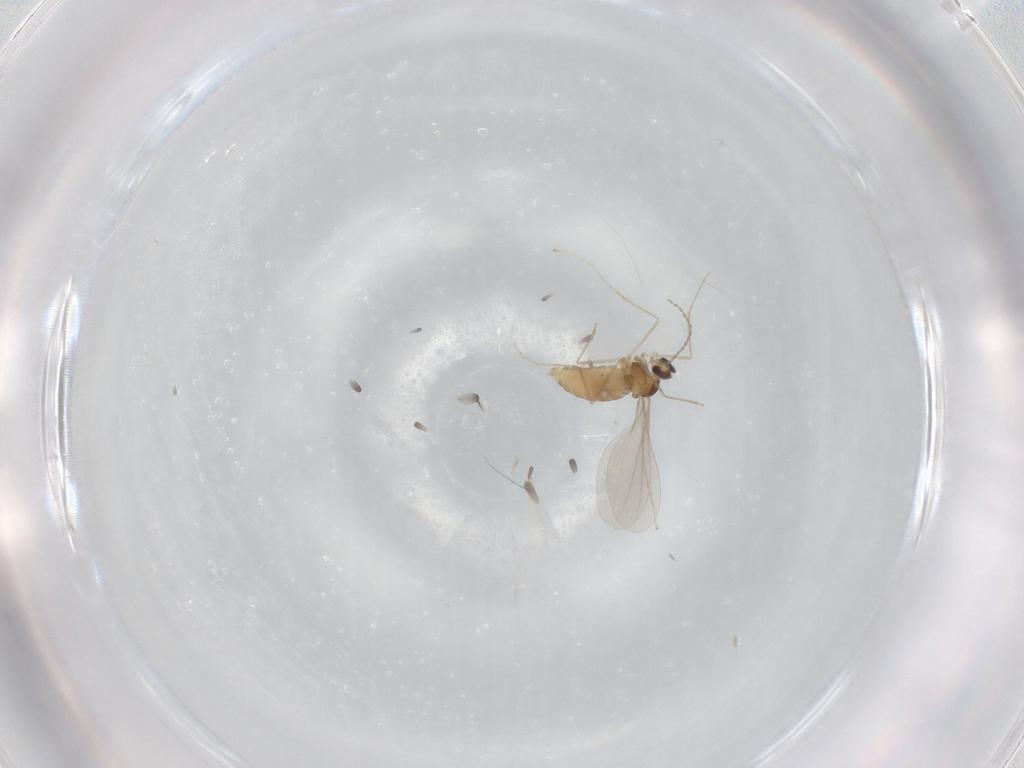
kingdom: Animalia
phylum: Arthropoda
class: Insecta
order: Diptera
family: Cecidomyiidae
